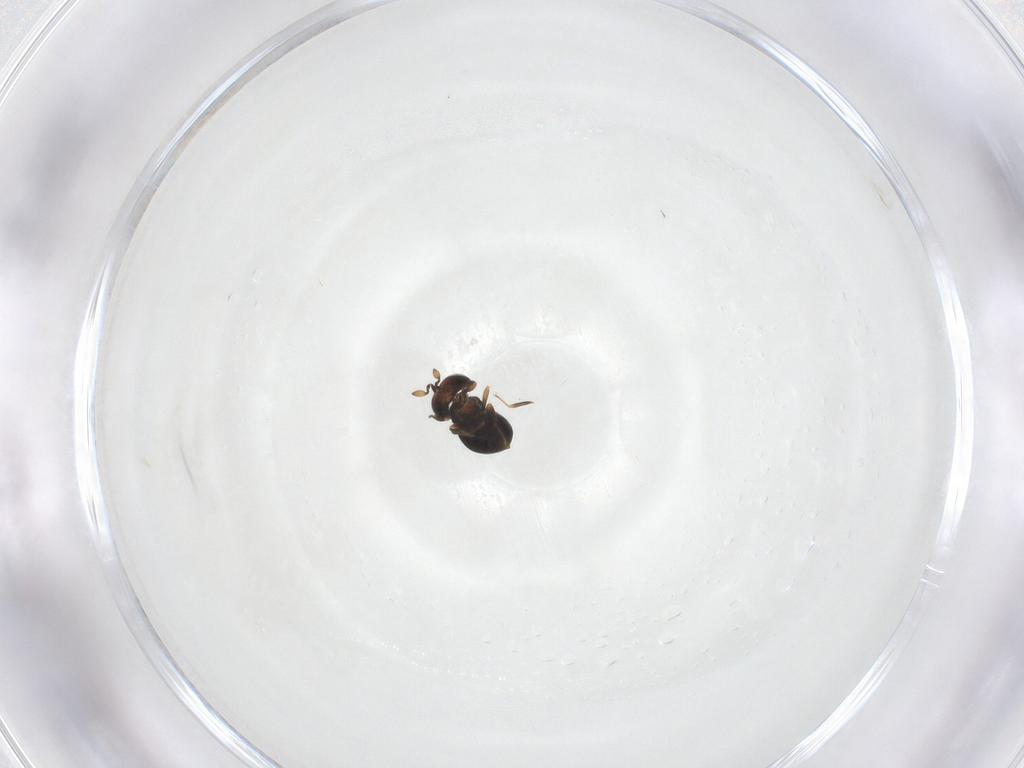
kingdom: Animalia
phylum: Arthropoda
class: Insecta
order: Hymenoptera
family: Scelionidae
